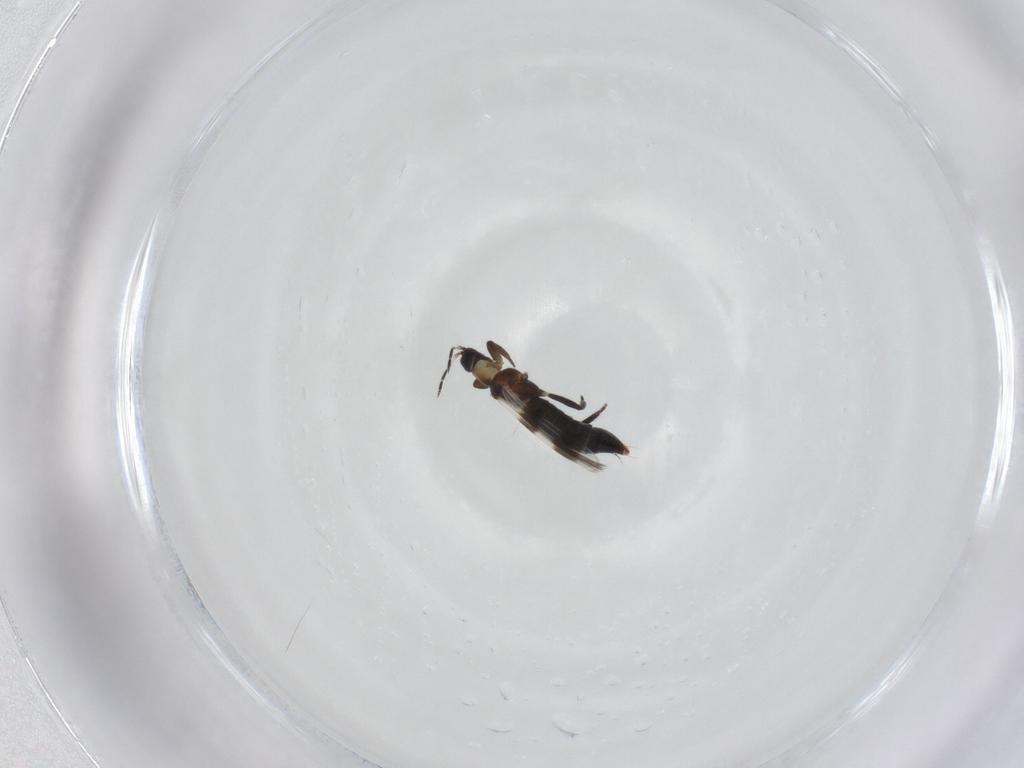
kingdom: Animalia
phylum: Arthropoda
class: Insecta
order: Thysanoptera
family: Aeolothripidae
